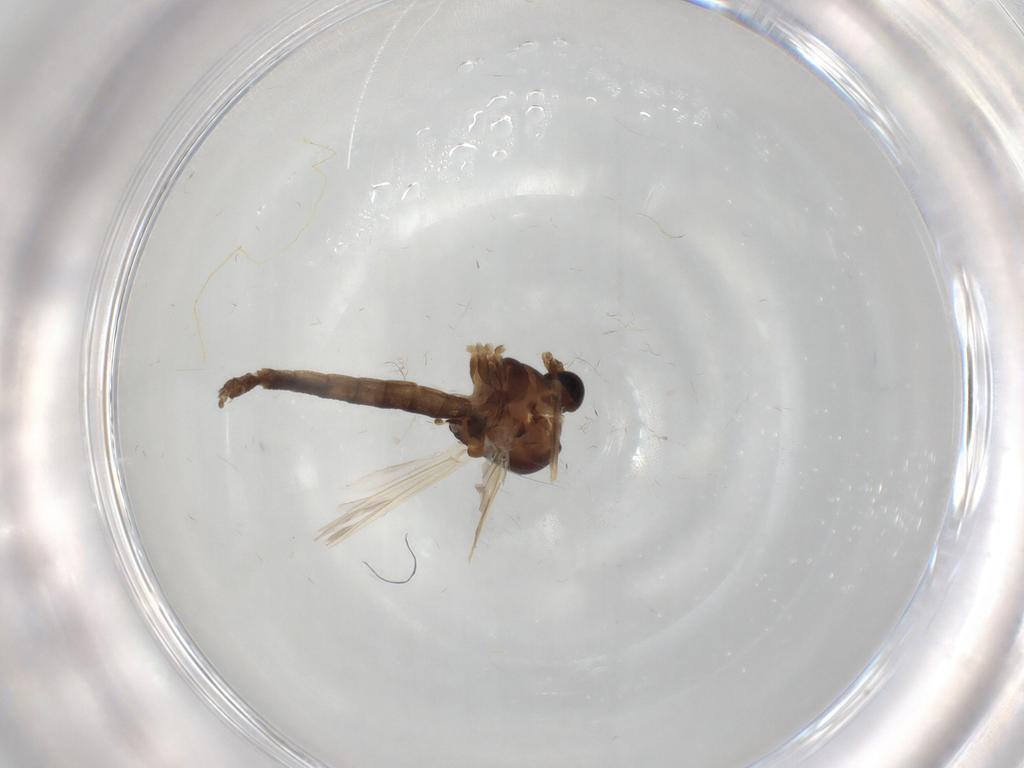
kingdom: Animalia
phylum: Arthropoda
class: Insecta
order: Diptera
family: Chironomidae
